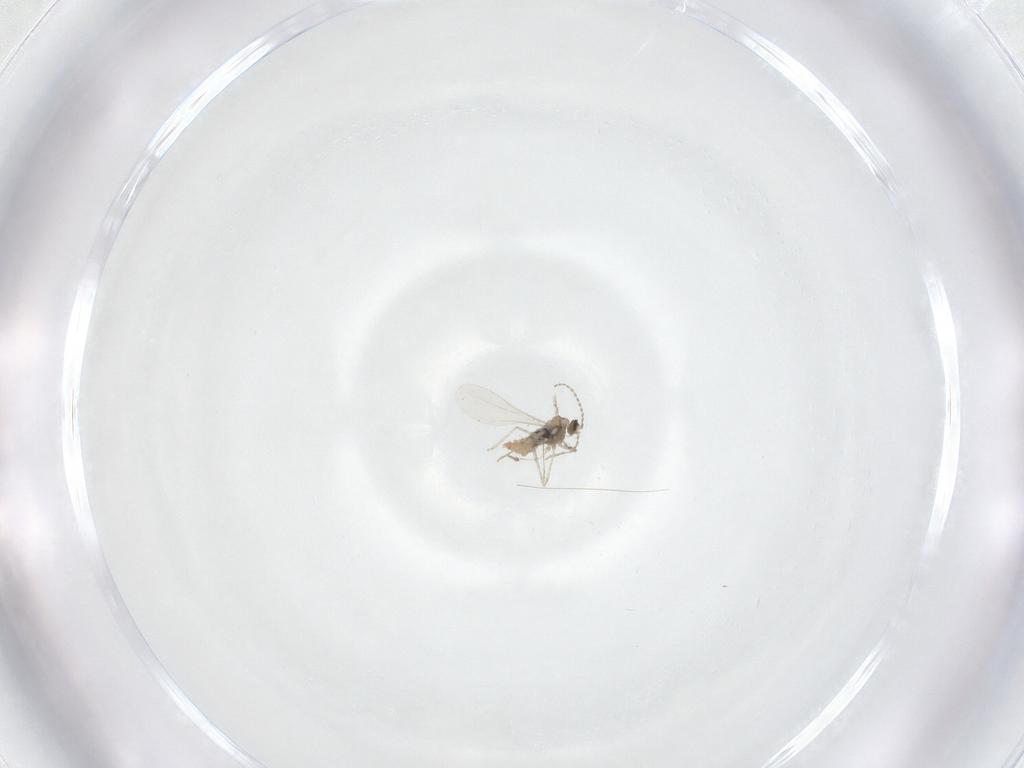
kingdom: Animalia
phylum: Arthropoda
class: Insecta
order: Diptera
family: Cecidomyiidae
